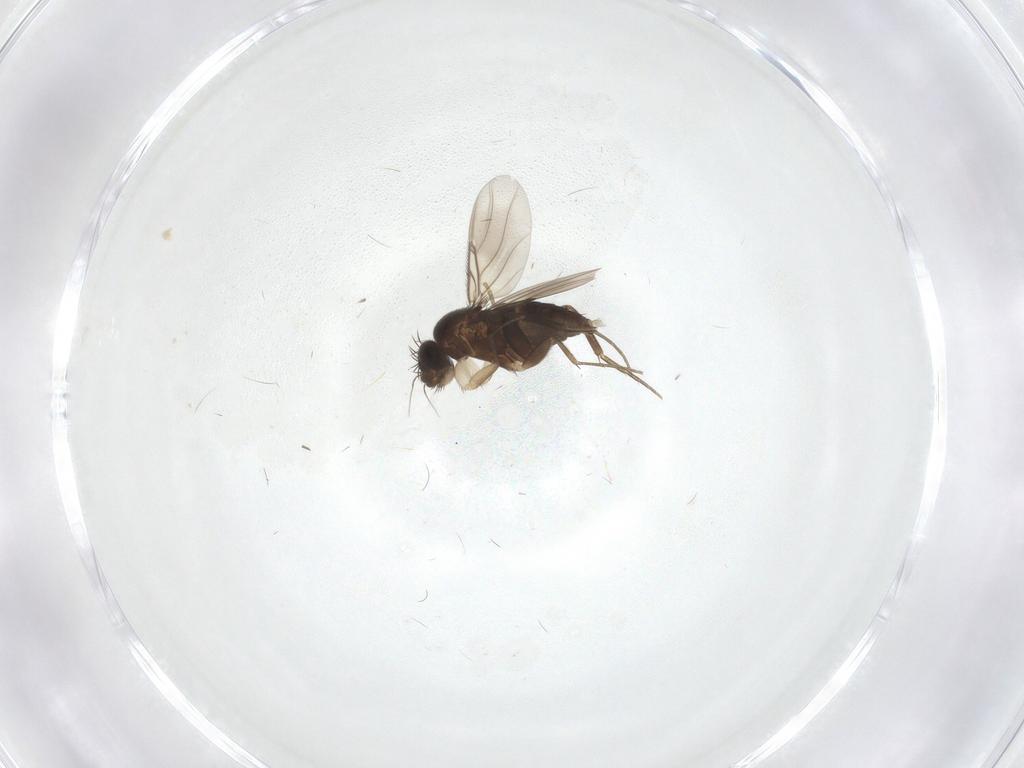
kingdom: Animalia
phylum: Arthropoda
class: Insecta
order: Diptera
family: Phoridae
